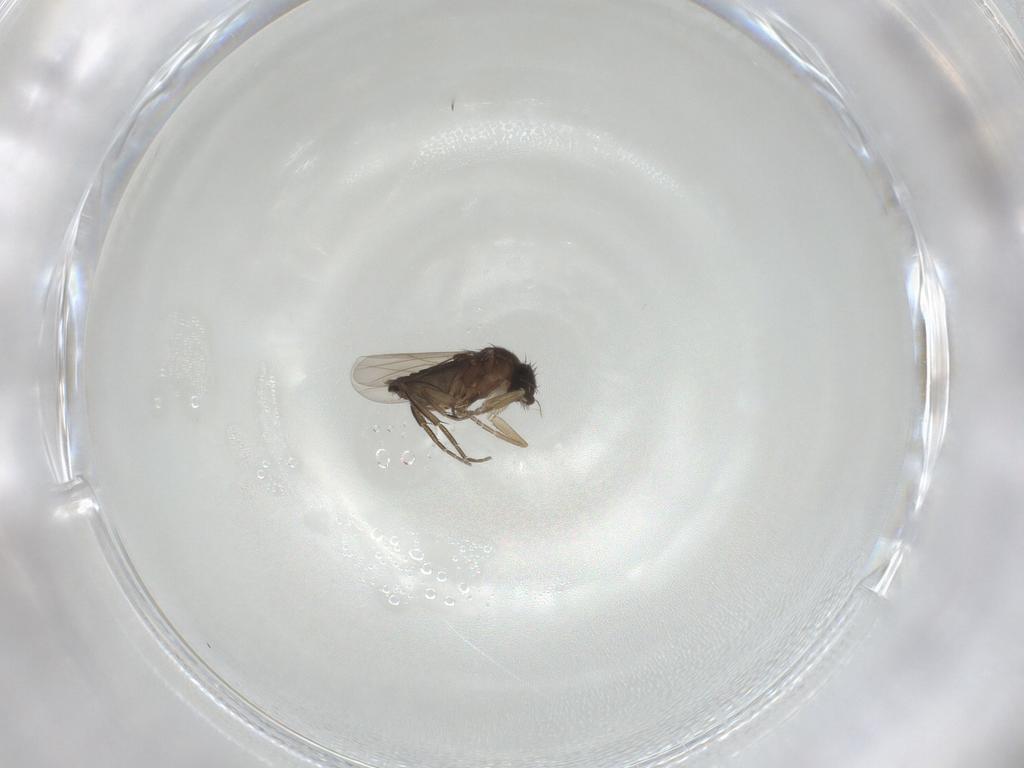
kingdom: Animalia
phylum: Arthropoda
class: Insecta
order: Diptera
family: Phoridae
